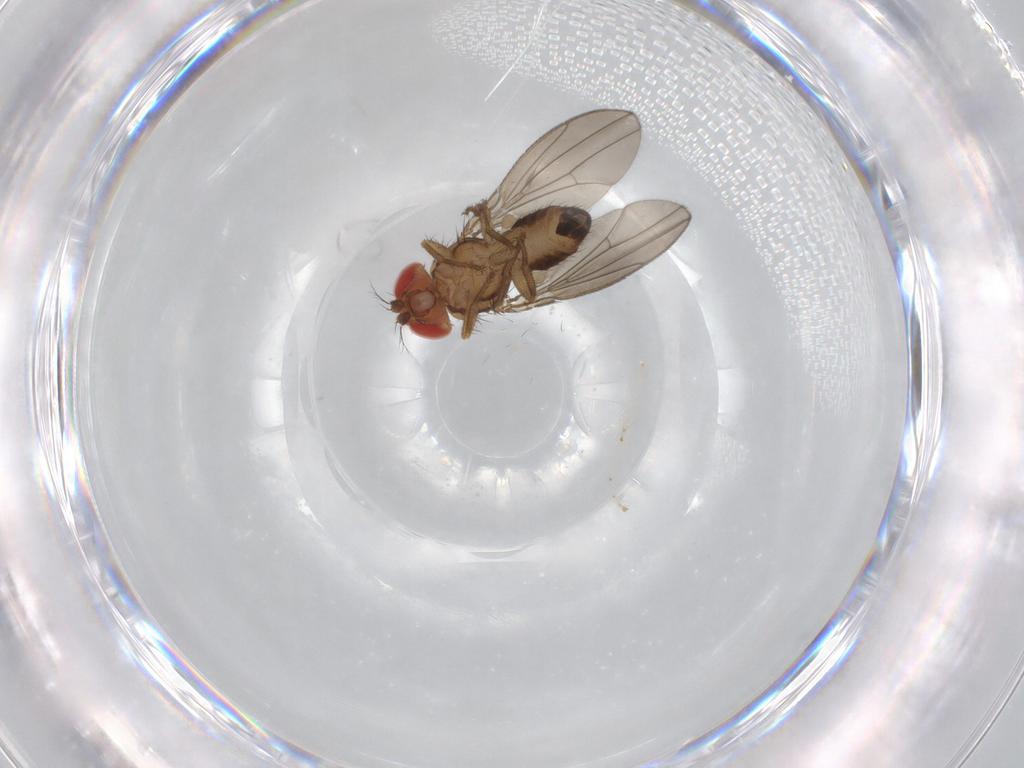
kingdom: Animalia
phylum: Arthropoda
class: Insecta
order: Diptera
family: Drosophilidae
